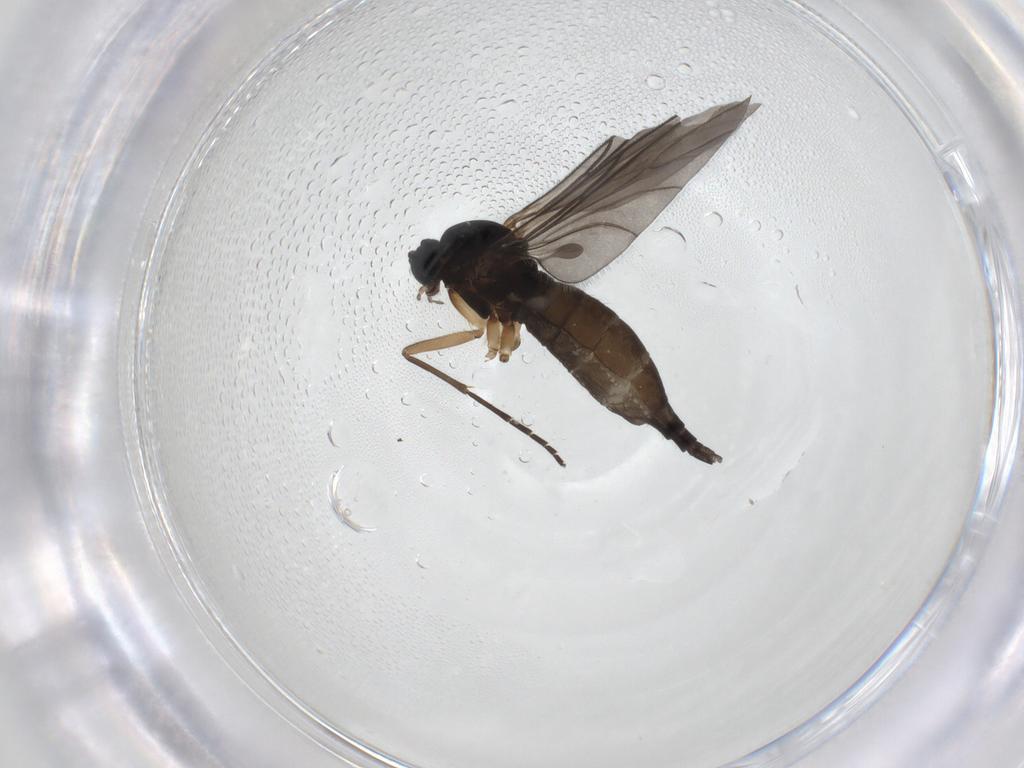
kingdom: Animalia
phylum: Arthropoda
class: Insecta
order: Diptera
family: Sciaridae
